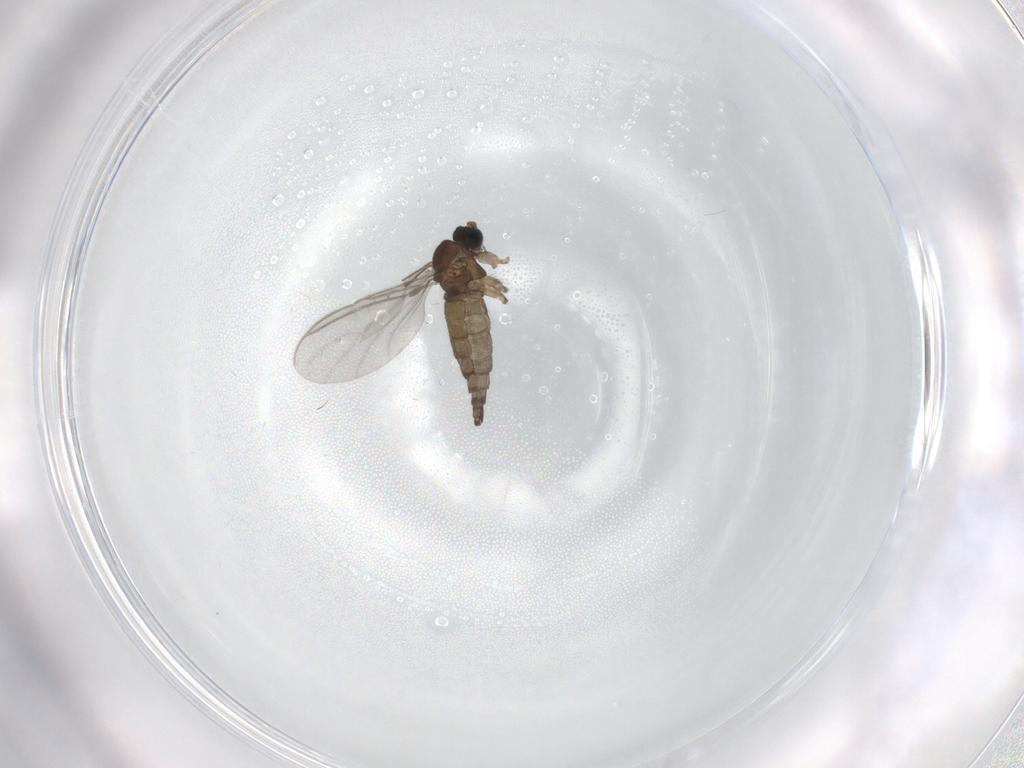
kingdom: Animalia
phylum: Arthropoda
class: Insecta
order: Diptera
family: Sciaridae
